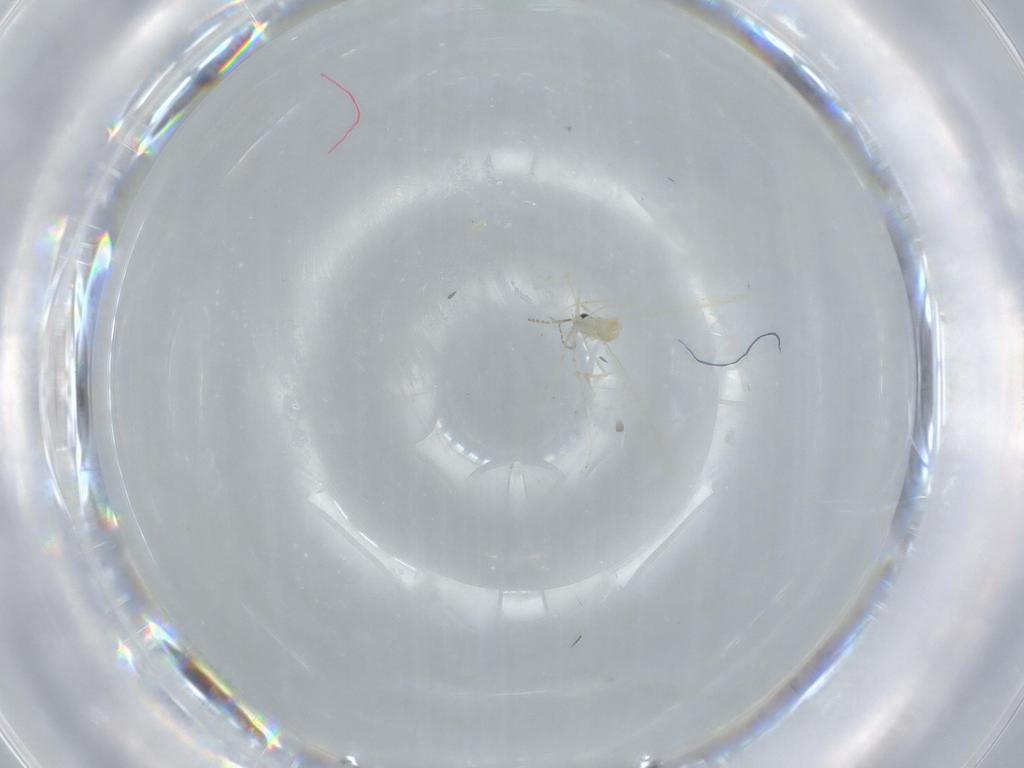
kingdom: Animalia
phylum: Arthropoda
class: Insecta
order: Diptera
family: Cecidomyiidae
